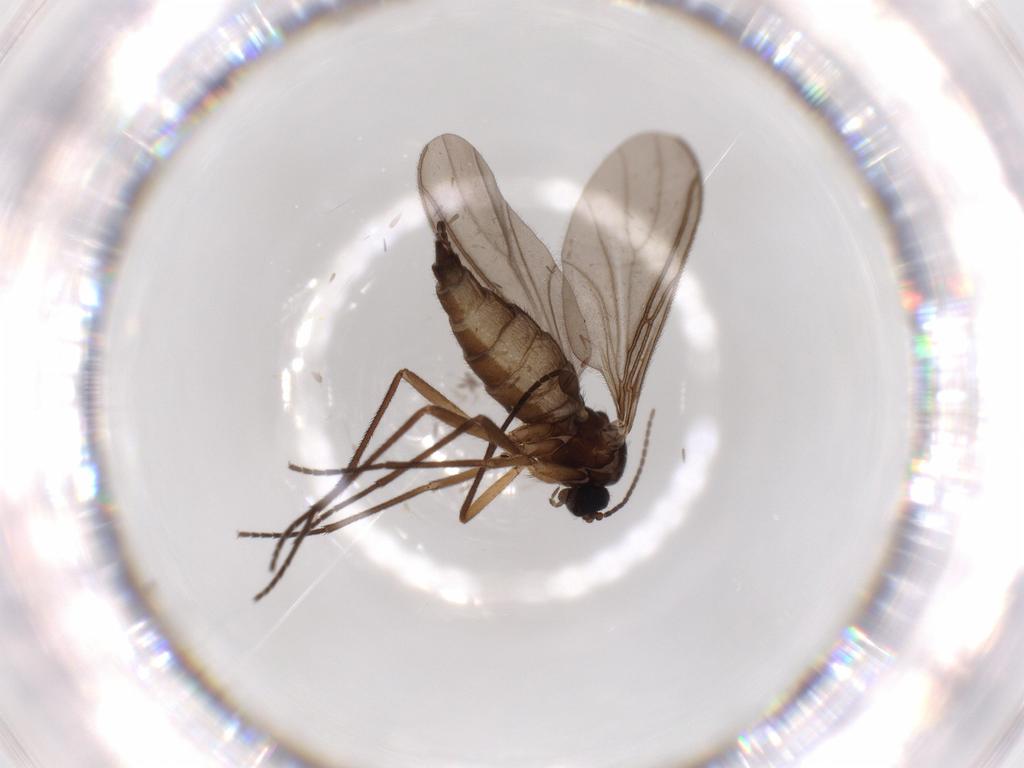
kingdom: Animalia
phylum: Arthropoda
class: Insecta
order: Diptera
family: Sciaridae
